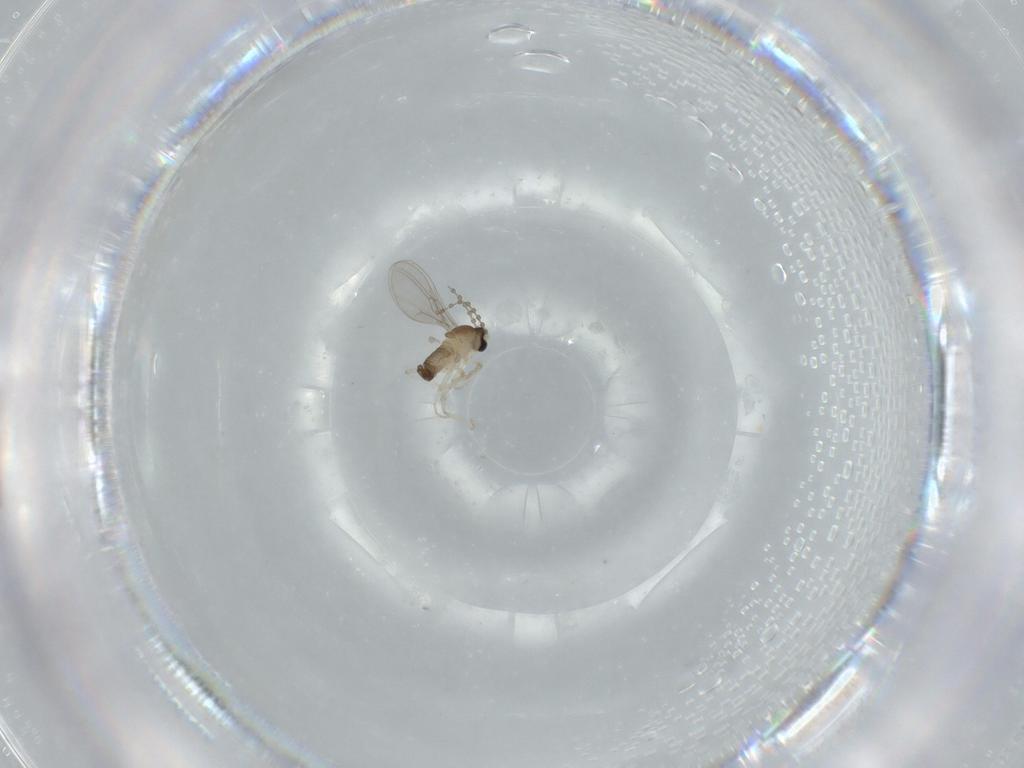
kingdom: Animalia
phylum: Arthropoda
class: Insecta
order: Diptera
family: Cecidomyiidae
